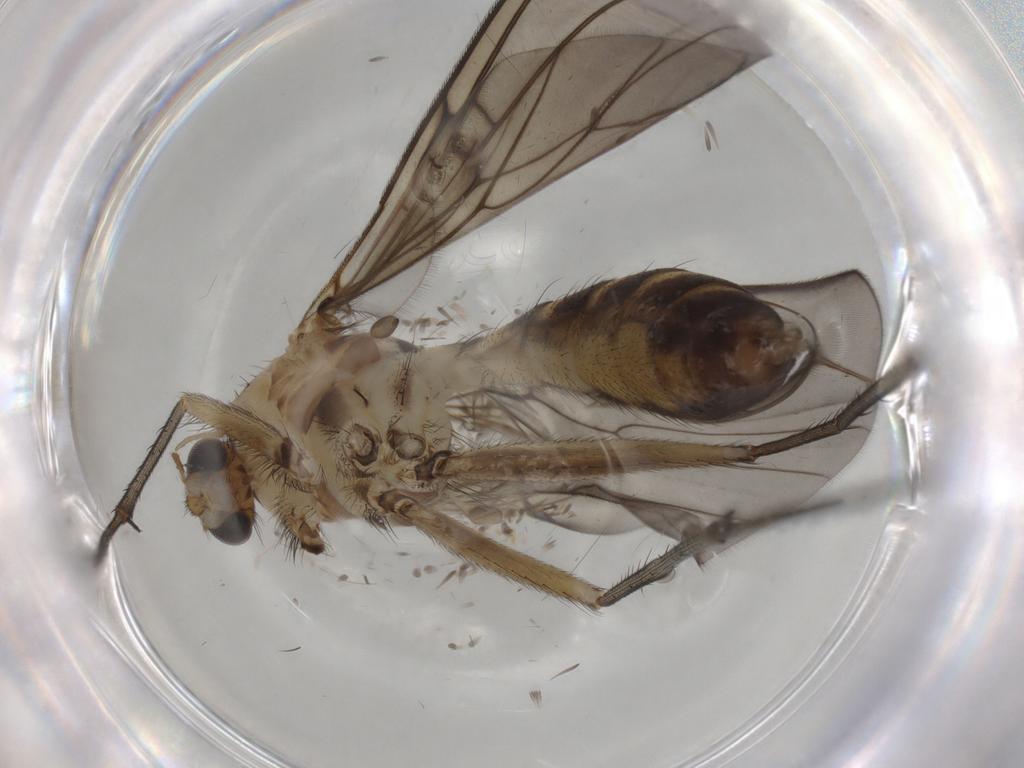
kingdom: Animalia
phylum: Arthropoda
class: Insecta
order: Diptera
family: Mycetophilidae
